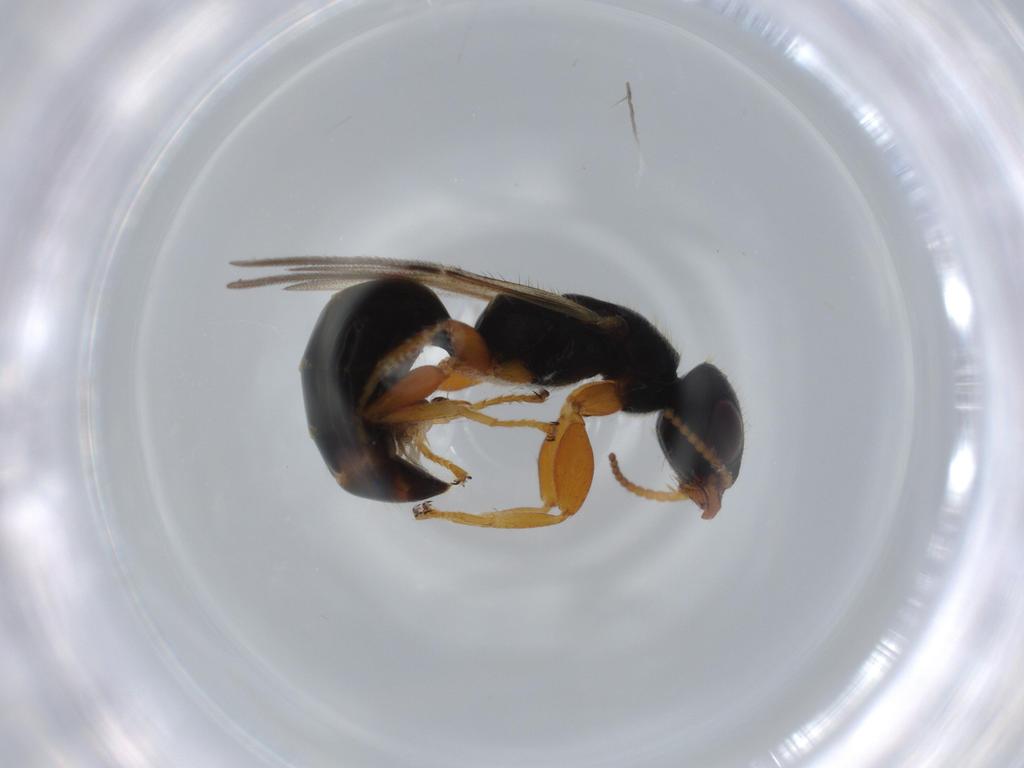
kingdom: Animalia
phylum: Arthropoda
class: Insecta
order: Hymenoptera
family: Bethylidae
